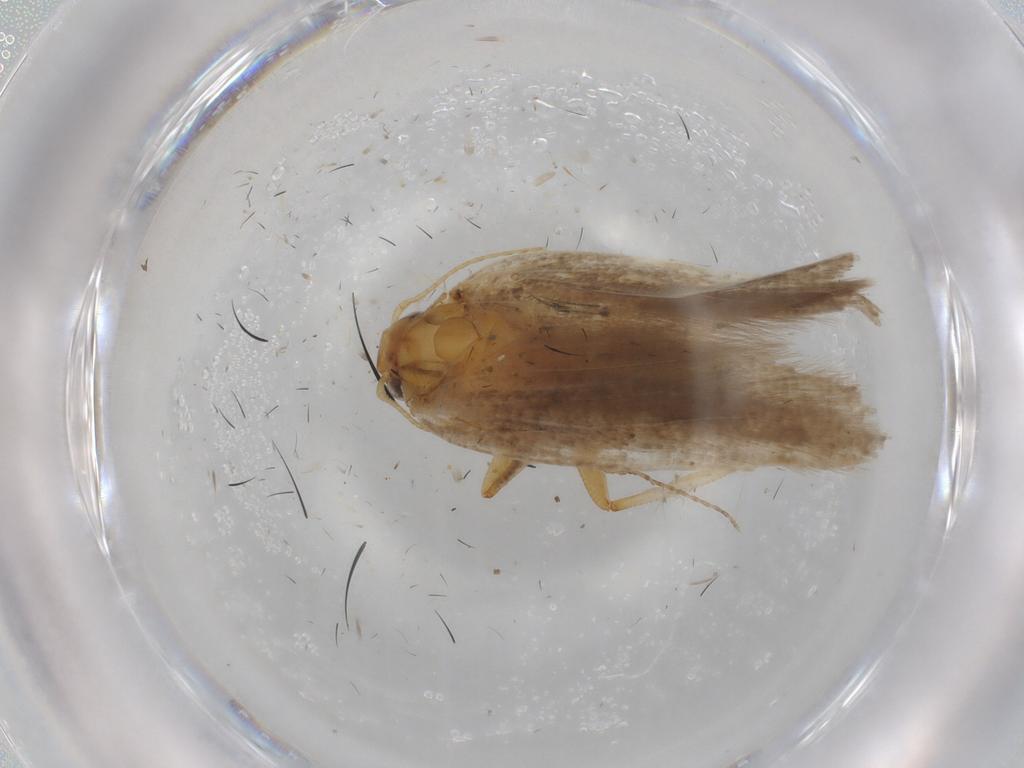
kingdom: Animalia
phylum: Arthropoda
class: Insecta
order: Lepidoptera
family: Gelechiidae
